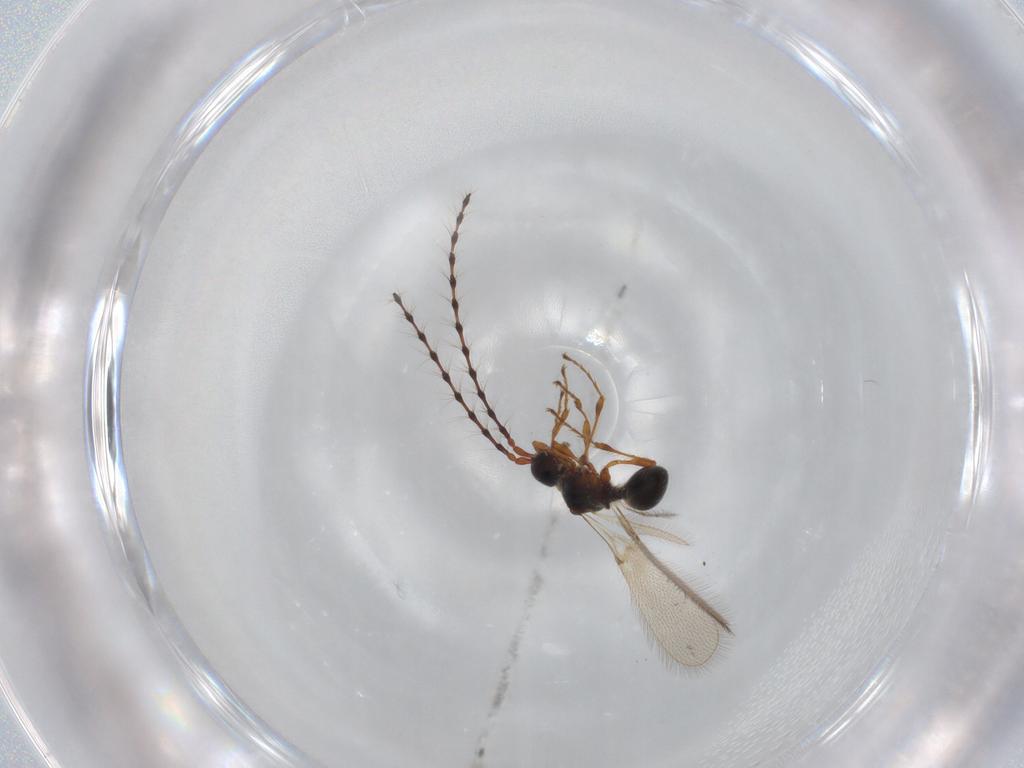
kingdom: Animalia
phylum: Arthropoda
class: Insecta
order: Hymenoptera
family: Diapriidae
